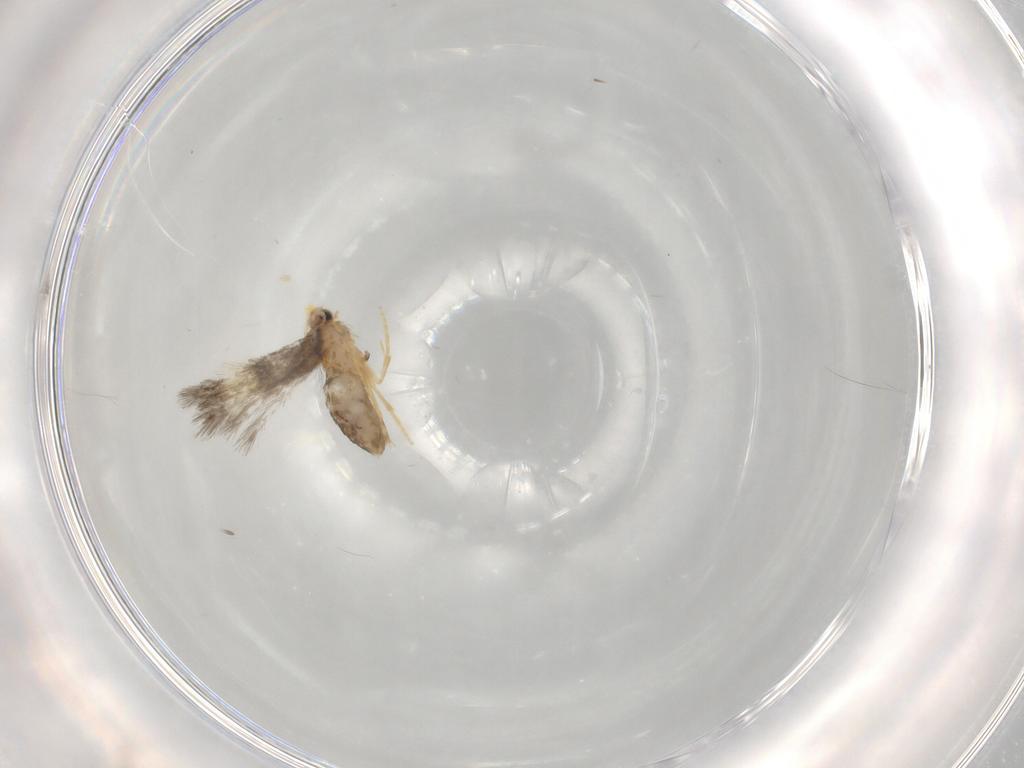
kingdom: Animalia
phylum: Arthropoda
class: Insecta
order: Lepidoptera
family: Nepticulidae
